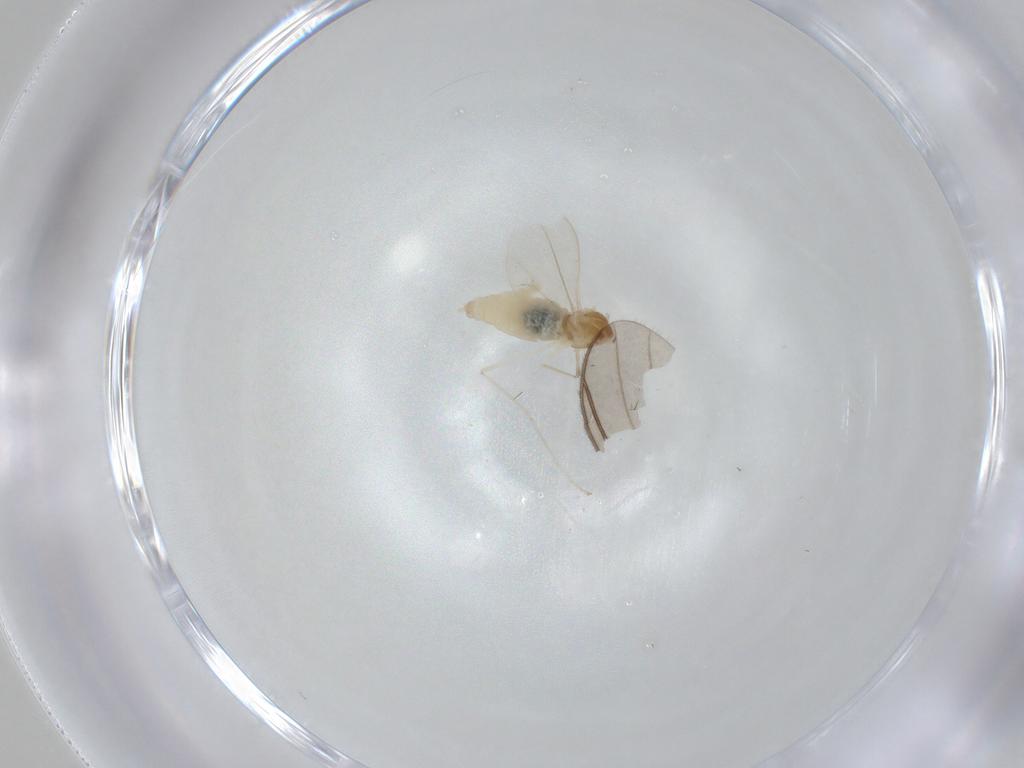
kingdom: Animalia
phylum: Arthropoda
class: Insecta
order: Diptera
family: Cecidomyiidae
